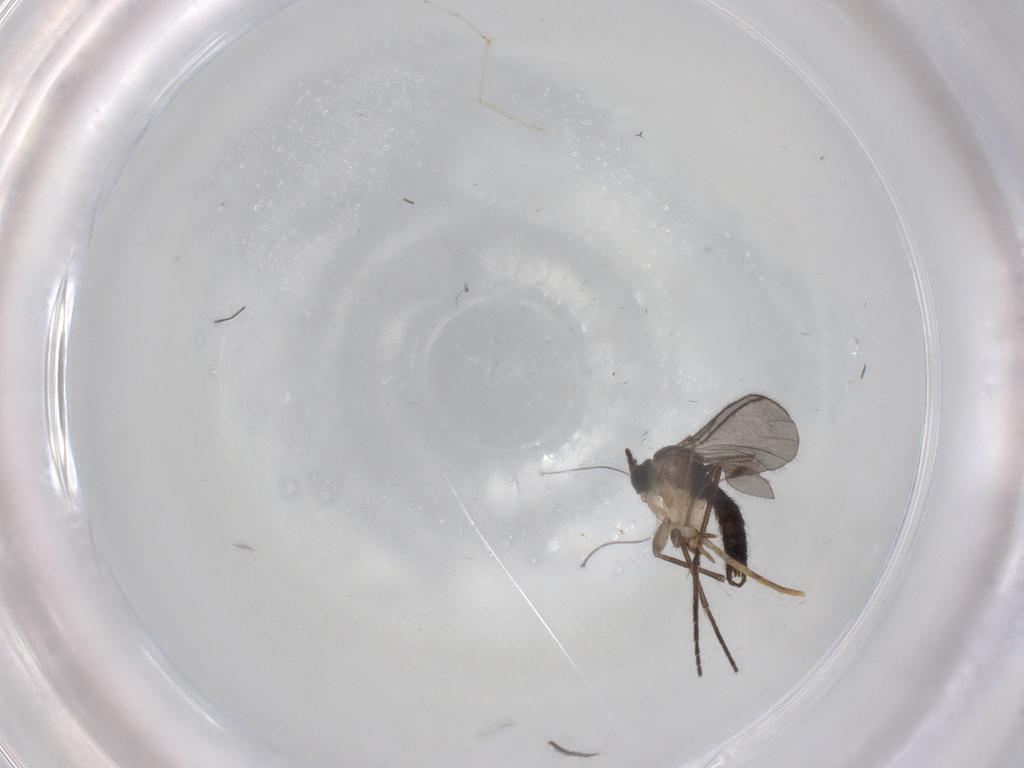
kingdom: Animalia
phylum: Arthropoda
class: Insecta
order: Diptera
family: Sciaridae
